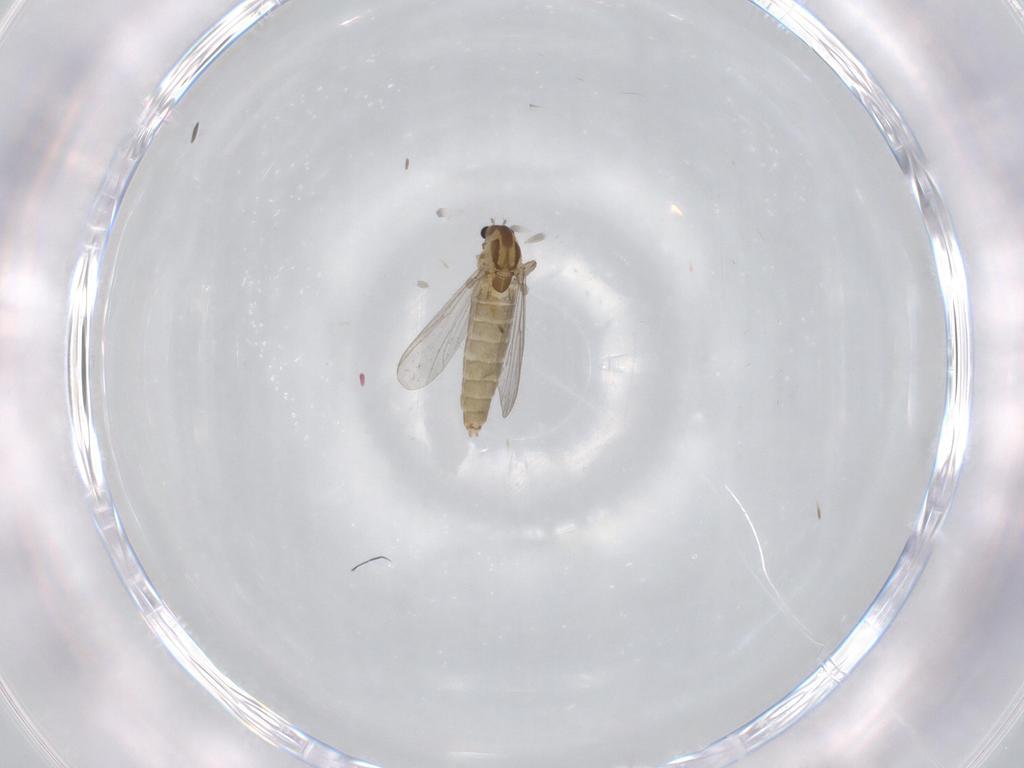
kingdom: Animalia
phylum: Arthropoda
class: Insecta
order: Diptera
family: Chironomidae
